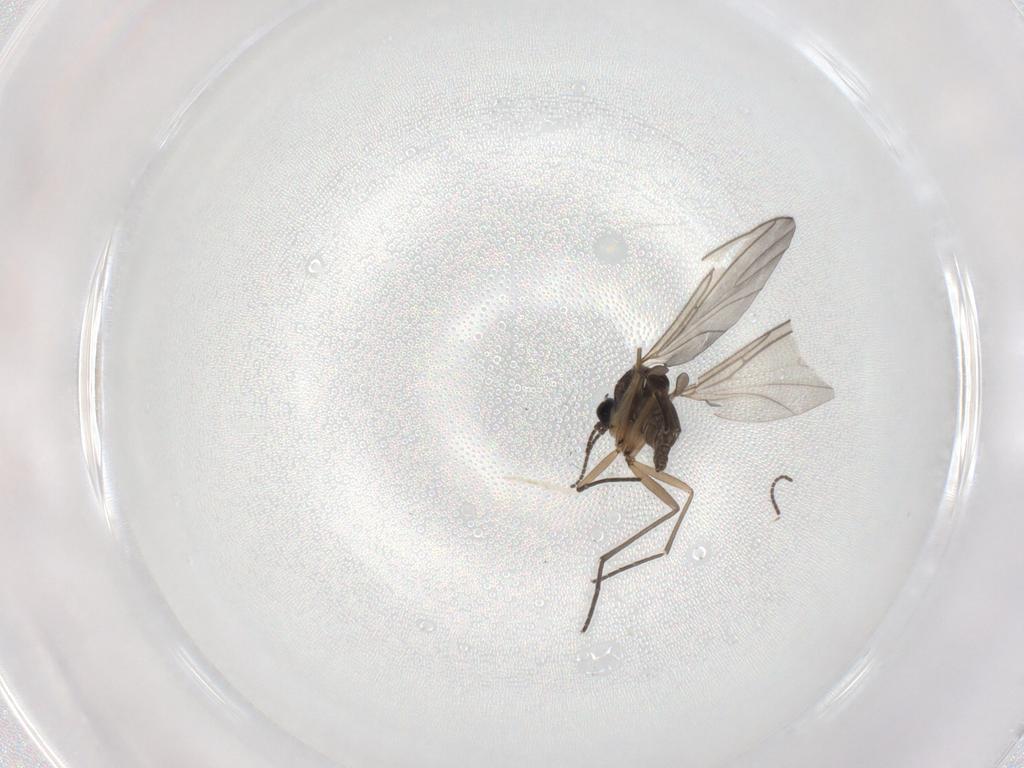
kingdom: Animalia
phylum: Arthropoda
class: Insecta
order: Diptera
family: Sciaridae
